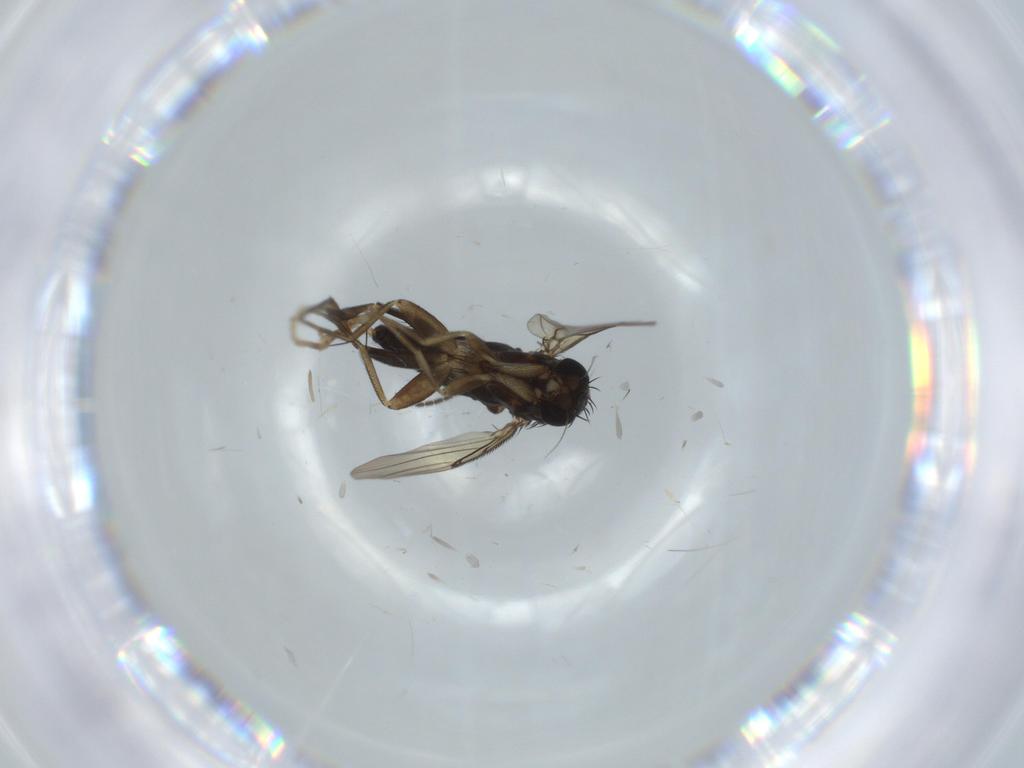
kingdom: Animalia
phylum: Arthropoda
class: Insecta
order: Diptera
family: Phoridae
